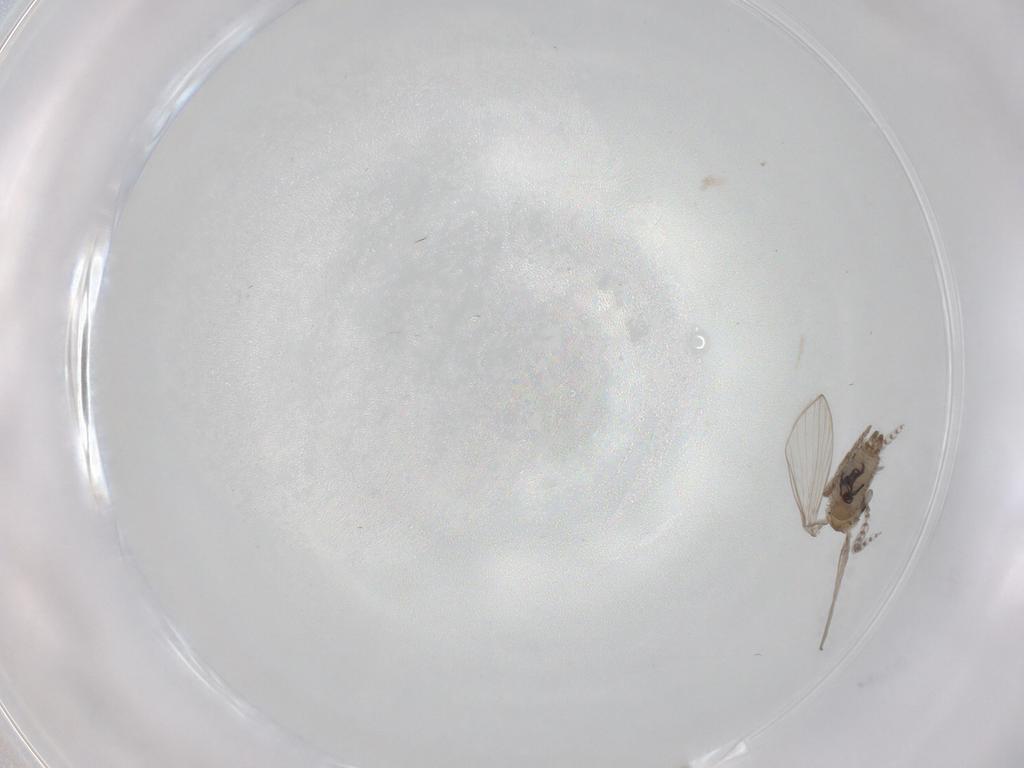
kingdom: Animalia
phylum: Arthropoda
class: Insecta
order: Diptera
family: Psychodidae
